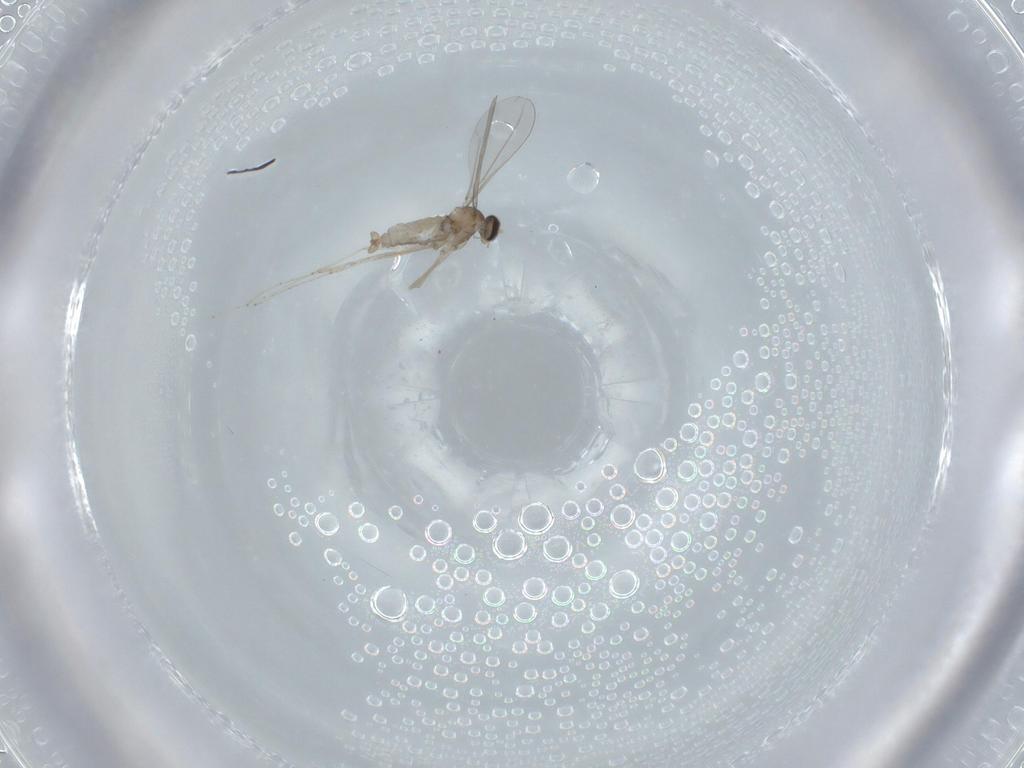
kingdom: Animalia
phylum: Arthropoda
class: Insecta
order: Diptera
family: Cecidomyiidae
